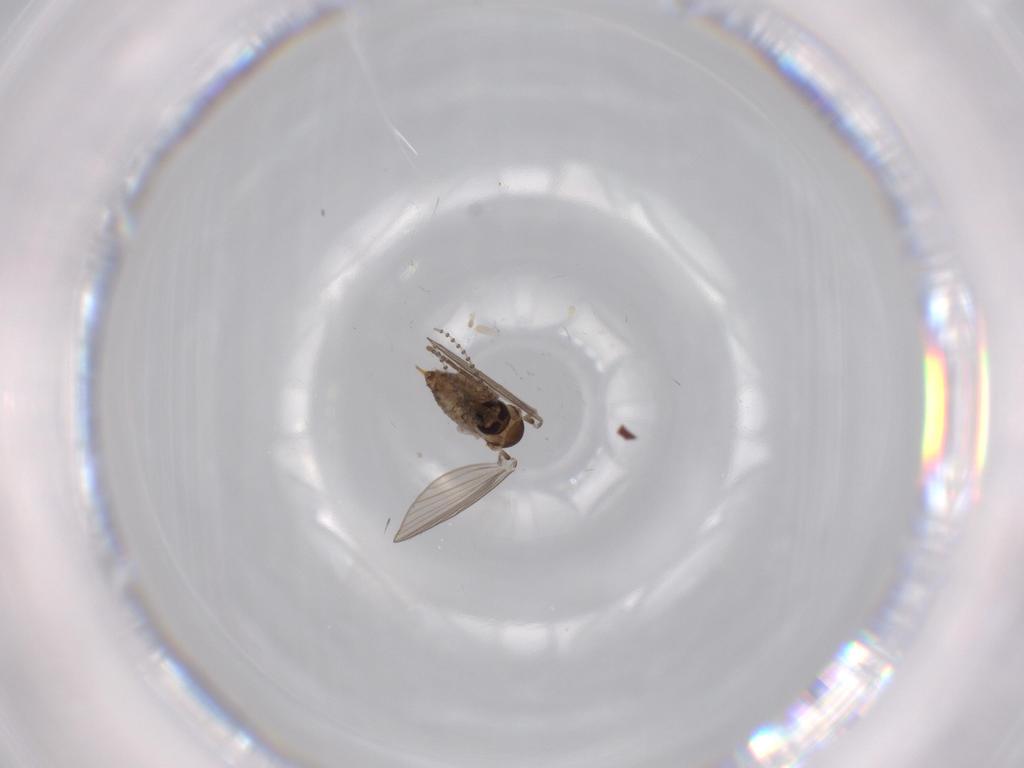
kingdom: Animalia
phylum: Arthropoda
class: Insecta
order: Diptera
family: Psychodidae
